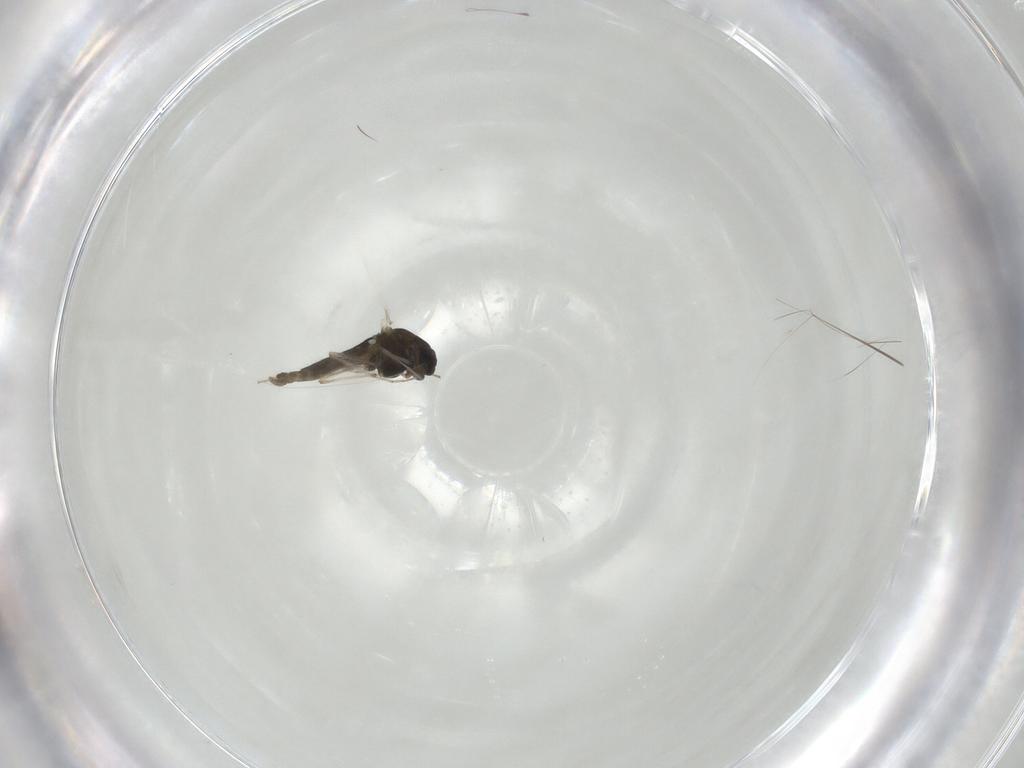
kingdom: Animalia
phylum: Arthropoda
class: Insecta
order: Diptera
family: Chironomidae
